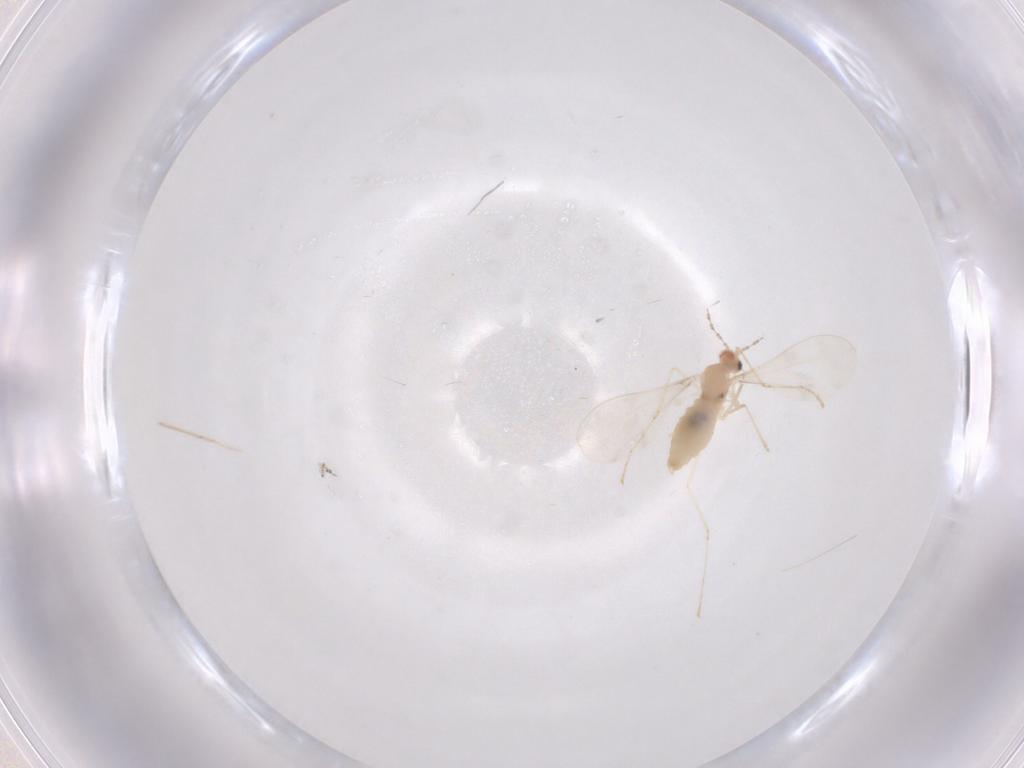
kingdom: Animalia
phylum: Arthropoda
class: Insecta
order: Diptera
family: Cecidomyiidae
